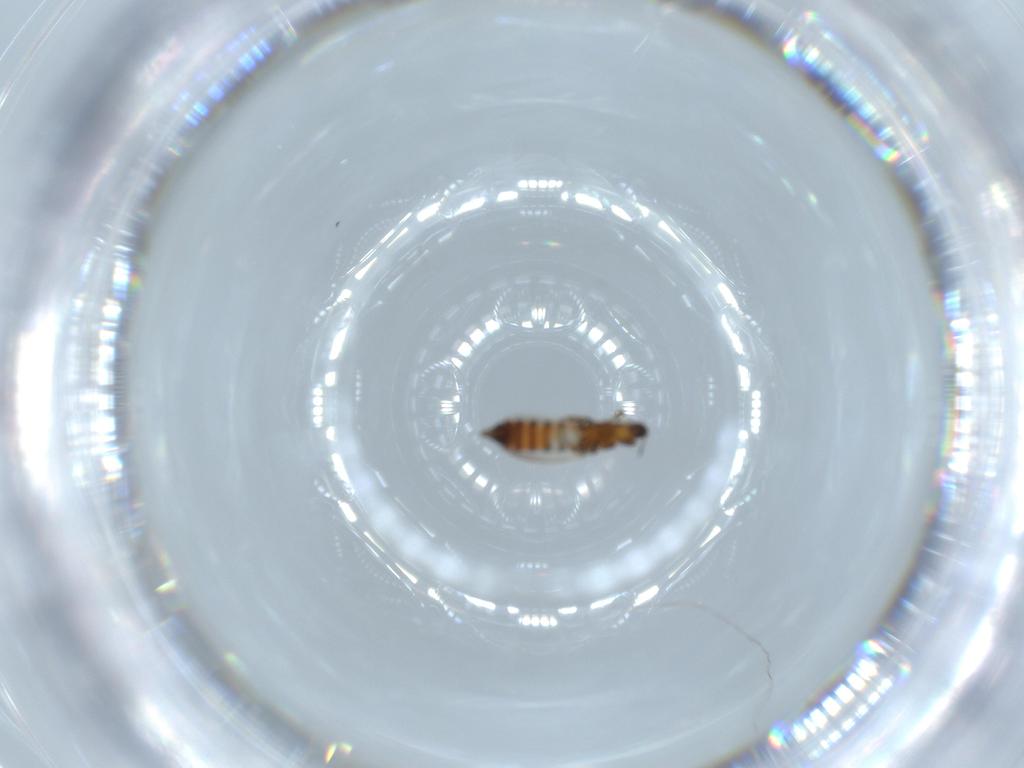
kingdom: Animalia
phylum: Arthropoda
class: Insecta
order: Thysanoptera
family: Thripidae
